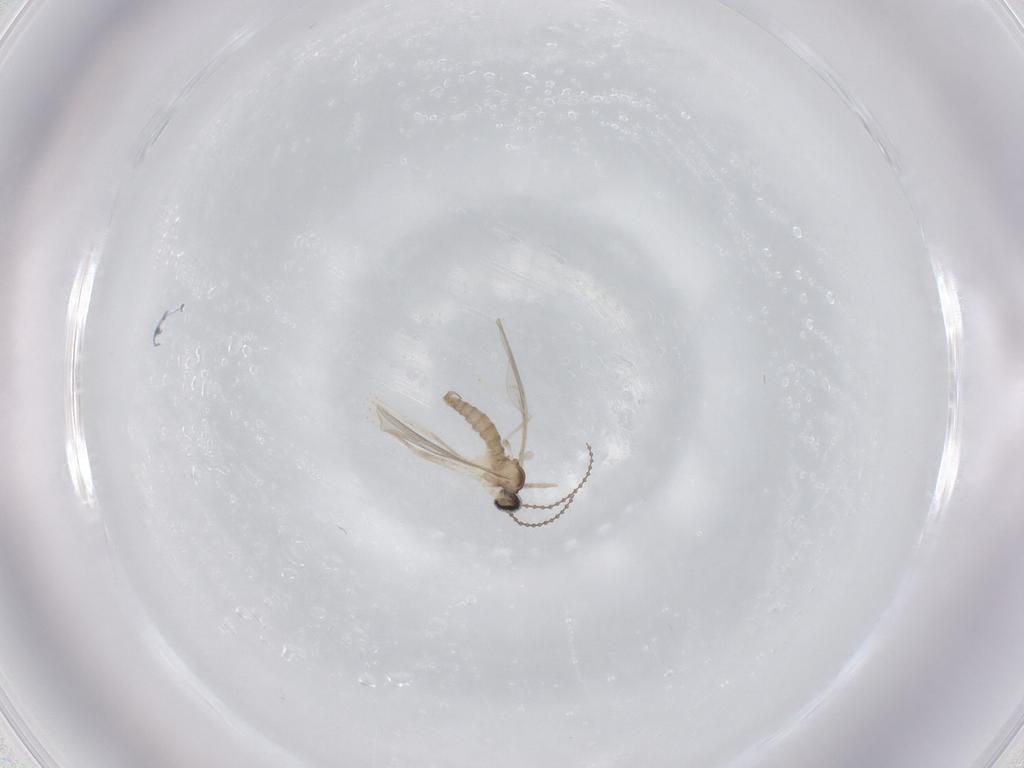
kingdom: Animalia
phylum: Arthropoda
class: Insecta
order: Diptera
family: Chironomidae
